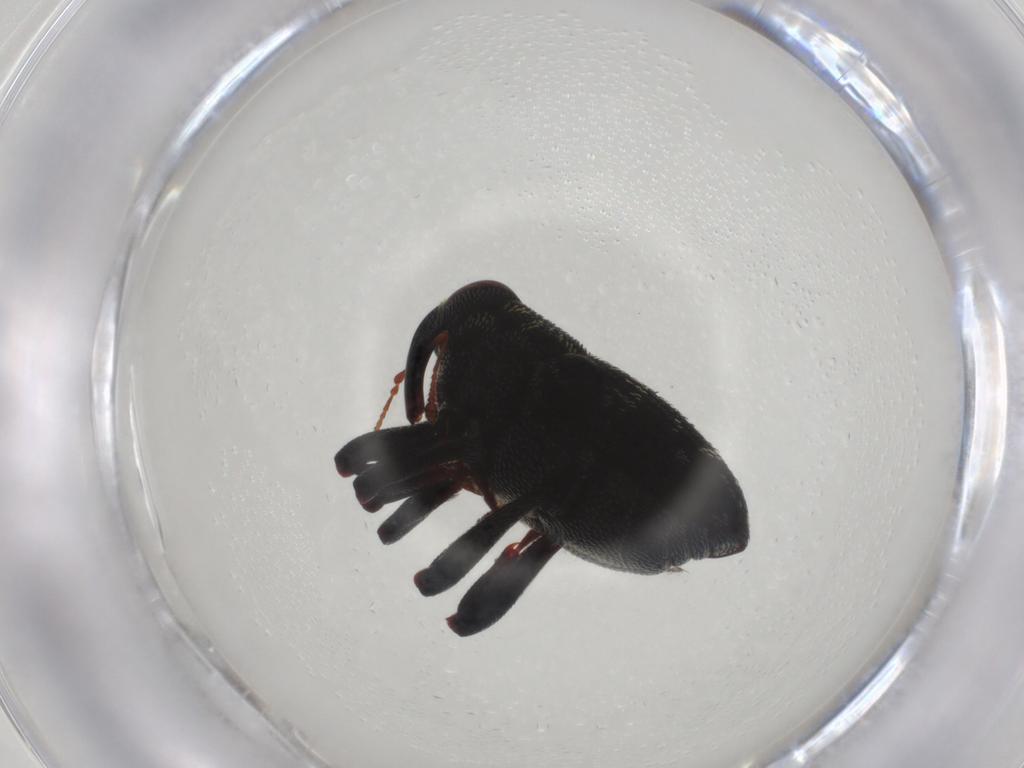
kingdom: Animalia
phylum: Arthropoda
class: Insecta
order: Coleoptera
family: Curculionidae
